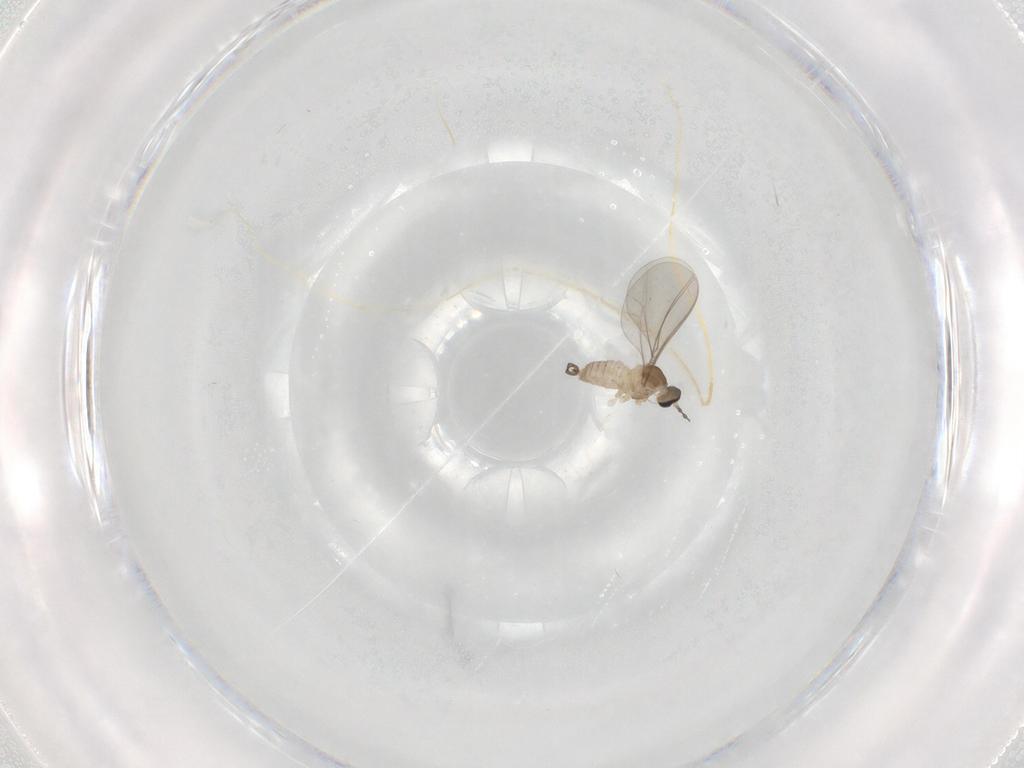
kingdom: Animalia
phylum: Arthropoda
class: Insecta
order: Diptera
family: Cecidomyiidae
